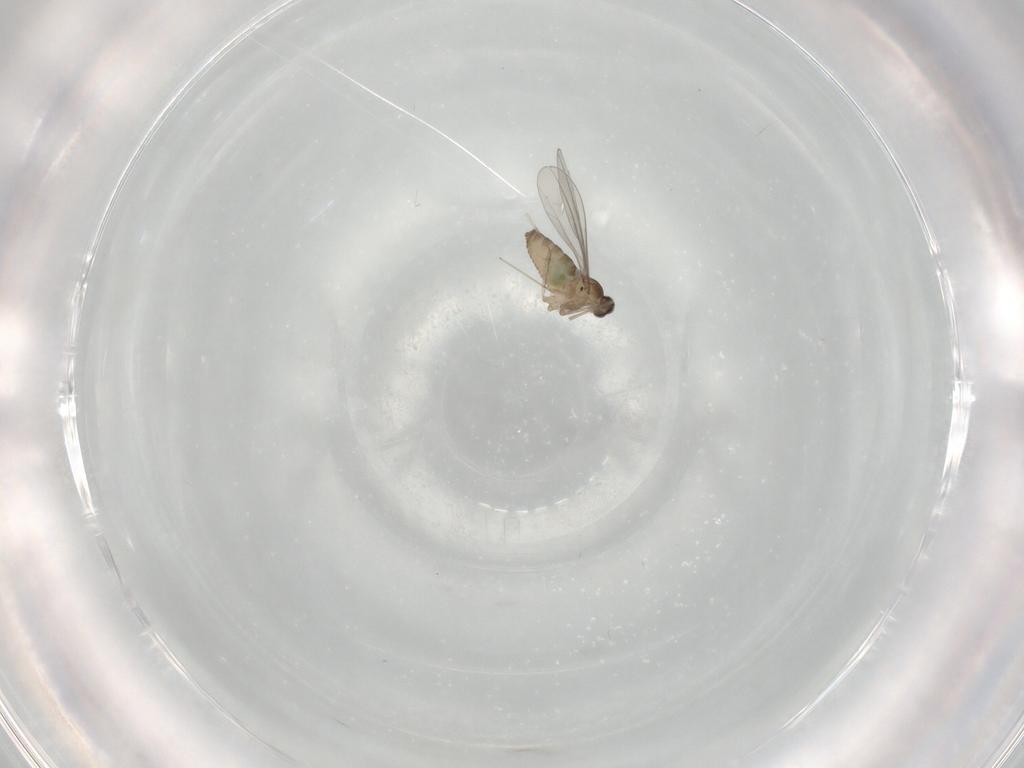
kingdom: Animalia
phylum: Arthropoda
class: Insecta
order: Diptera
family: Cecidomyiidae
